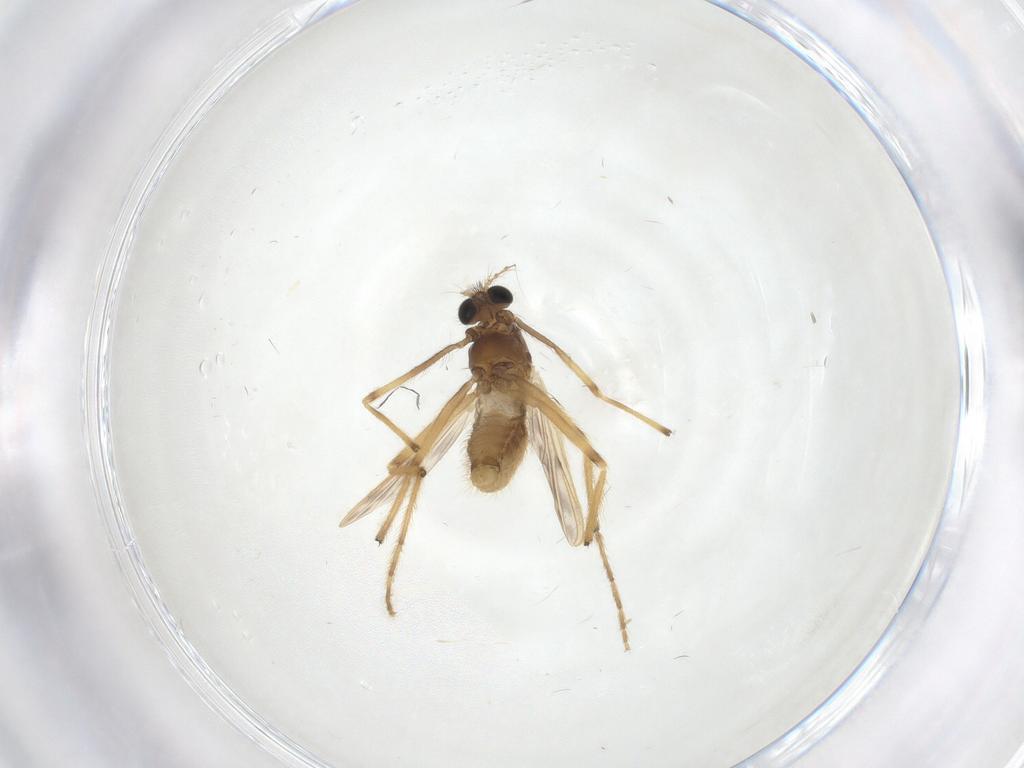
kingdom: Animalia
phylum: Arthropoda
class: Insecta
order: Diptera
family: Chironomidae
